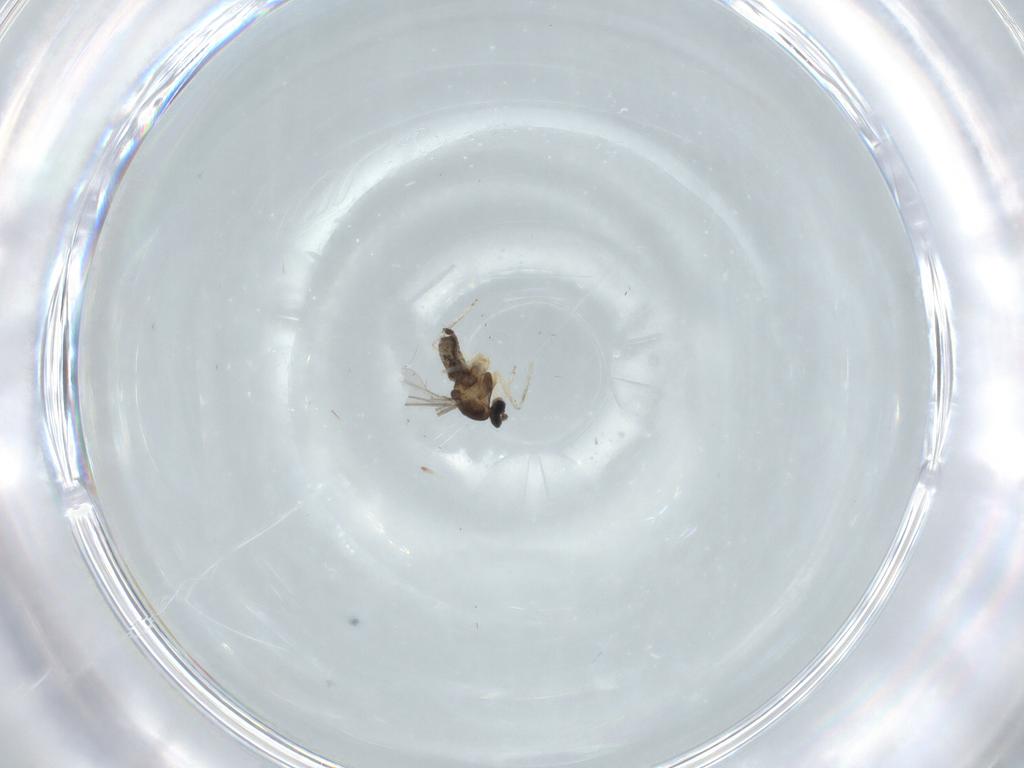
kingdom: Animalia
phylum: Arthropoda
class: Insecta
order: Diptera
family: Cecidomyiidae
